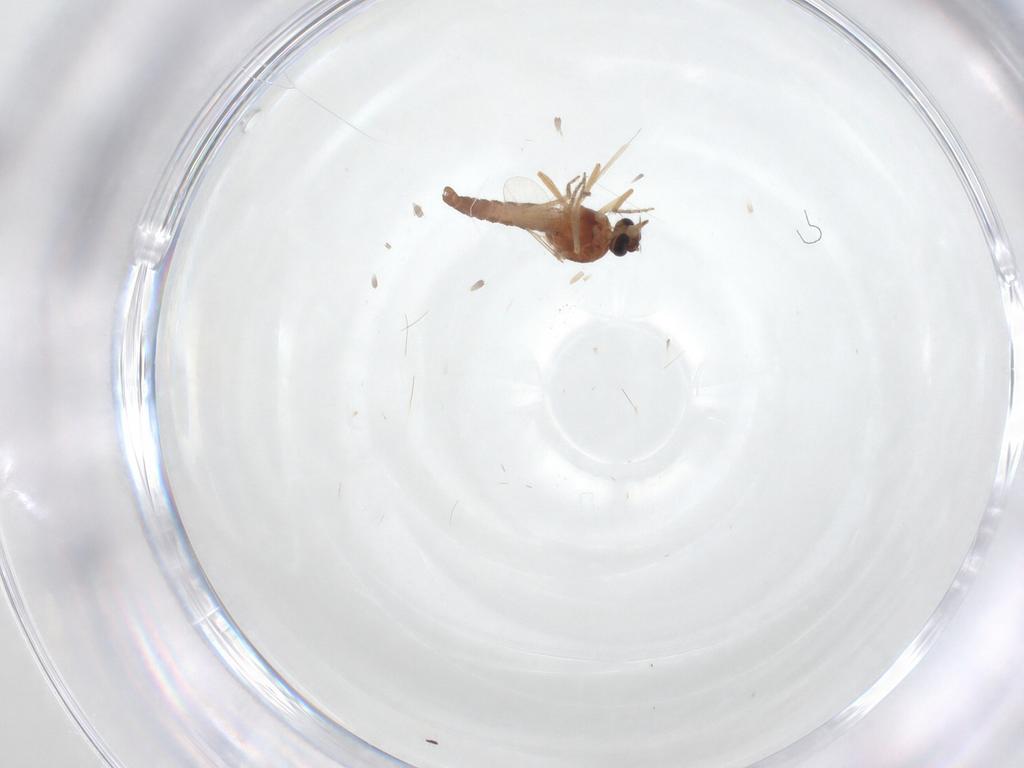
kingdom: Animalia
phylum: Arthropoda
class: Insecta
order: Diptera
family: Ceratopogonidae
